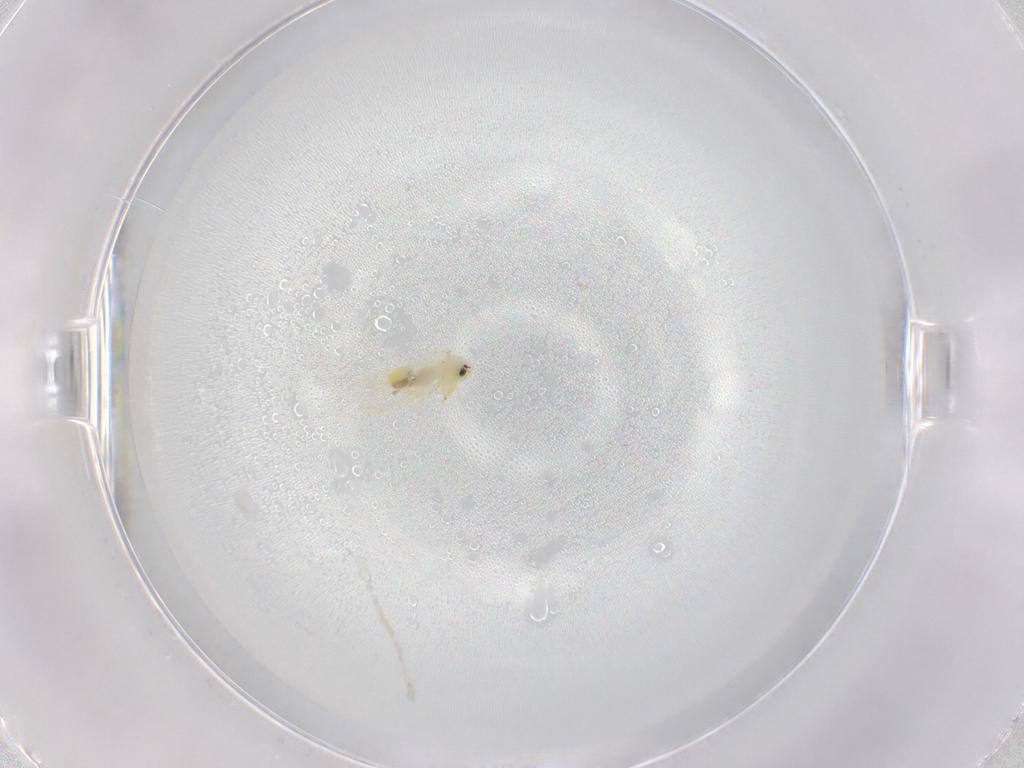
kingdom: Animalia
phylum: Arthropoda
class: Insecta
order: Hemiptera
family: Aleyrodidae
